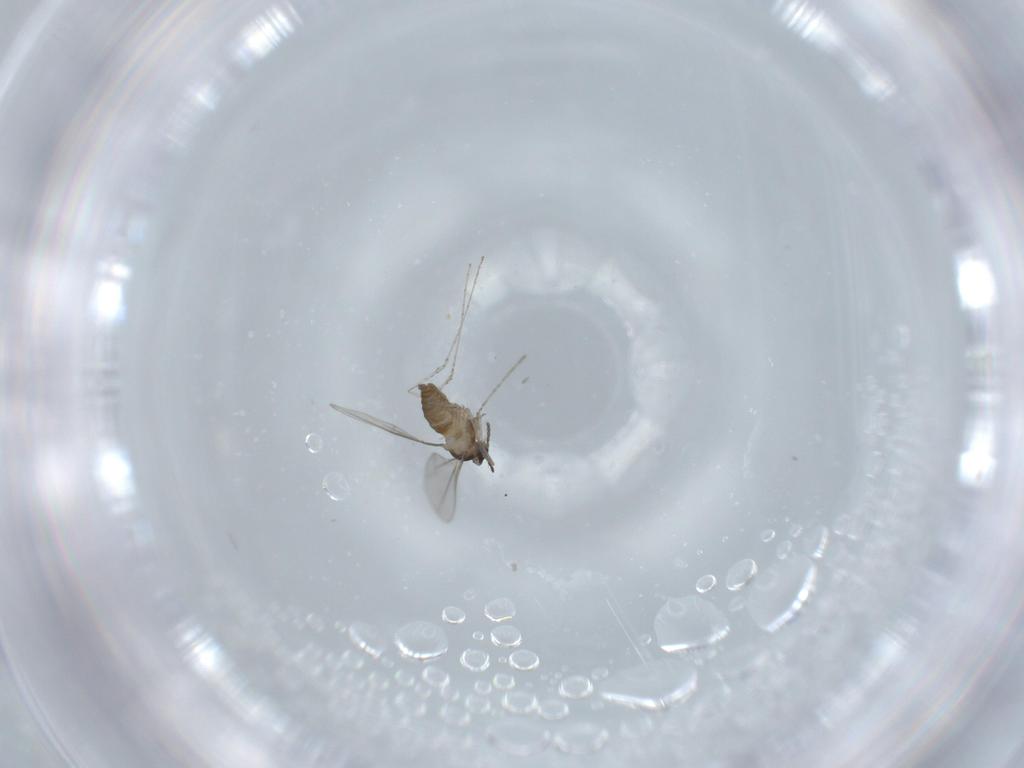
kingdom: Animalia
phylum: Arthropoda
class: Insecta
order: Diptera
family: Cecidomyiidae
